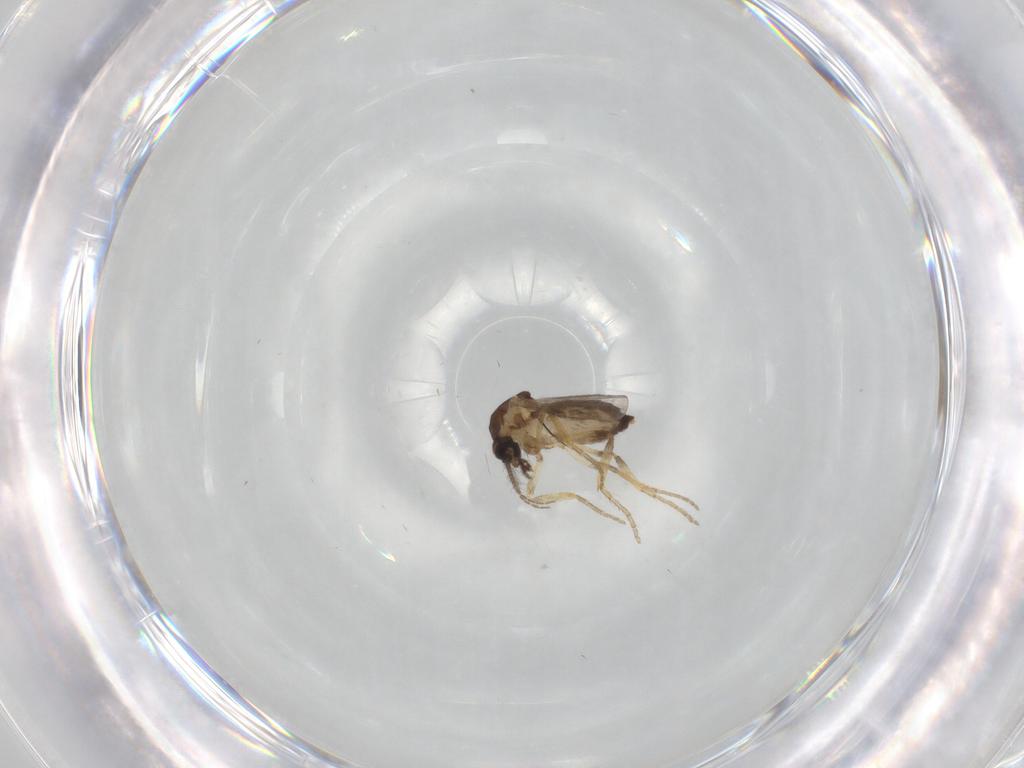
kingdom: Animalia
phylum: Arthropoda
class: Insecta
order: Diptera
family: Ceratopogonidae
